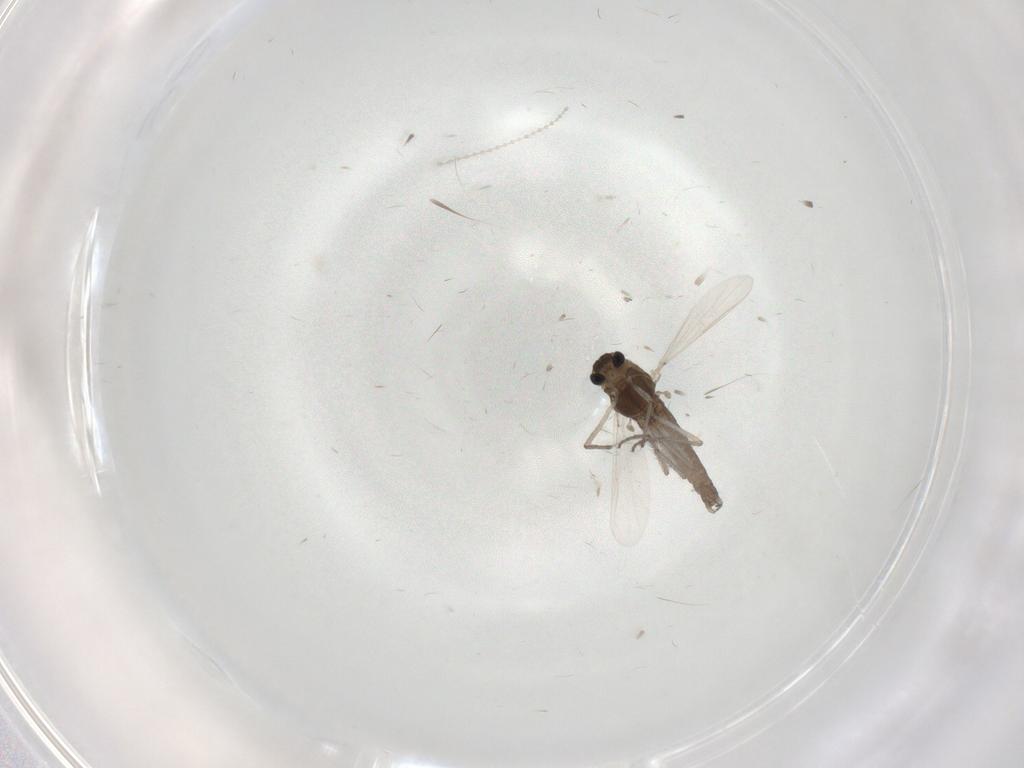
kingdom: Animalia
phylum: Arthropoda
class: Insecta
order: Diptera
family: Chironomidae
